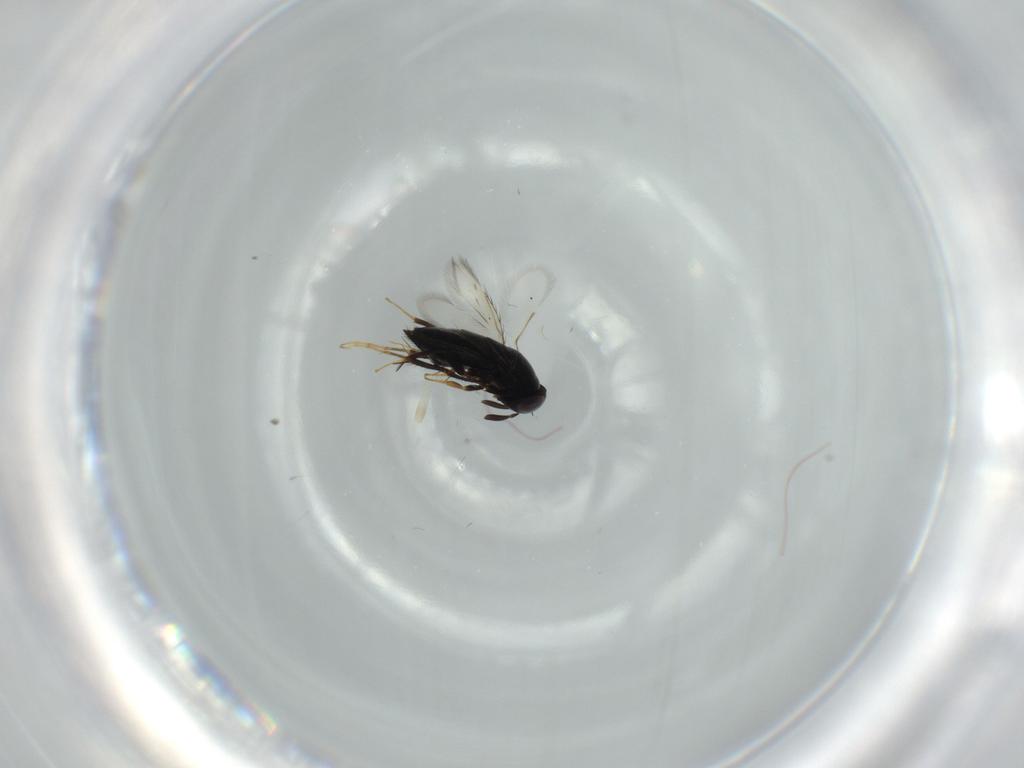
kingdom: Animalia
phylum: Arthropoda
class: Insecta
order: Hymenoptera
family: Signiphoridae
